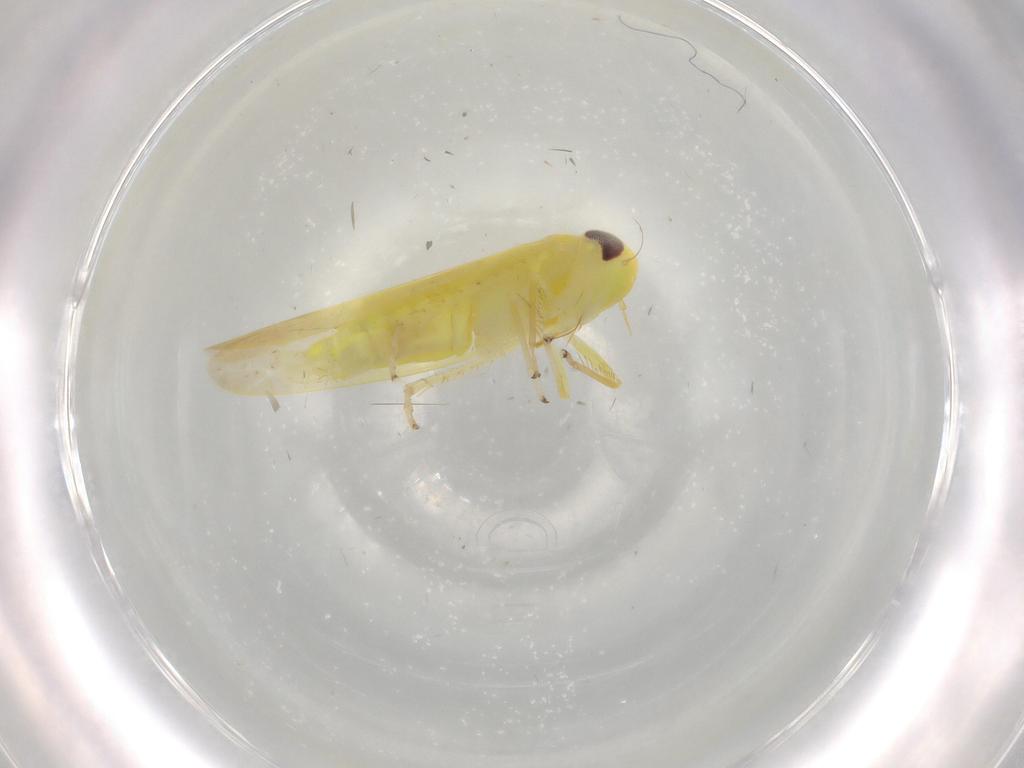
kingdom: Animalia
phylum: Arthropoda
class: Insecta
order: Hemiptera
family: Cicadellidae
